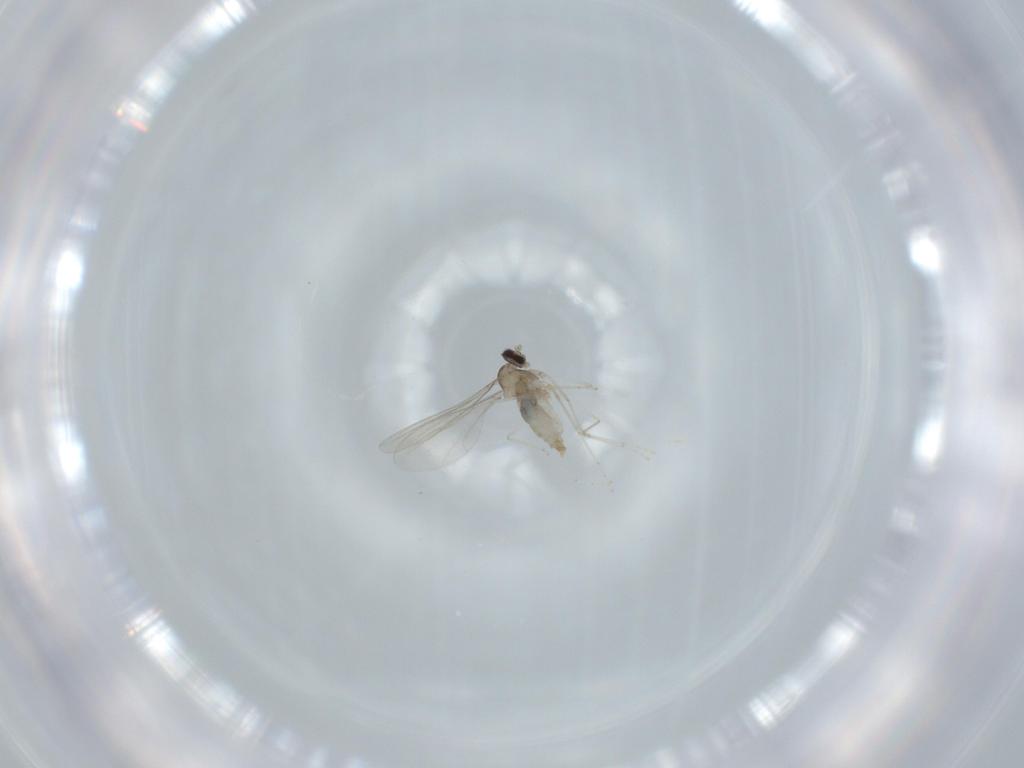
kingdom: Animalia
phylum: Arthropoda
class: Insecta
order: Diptera
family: Cecidomyiidae
